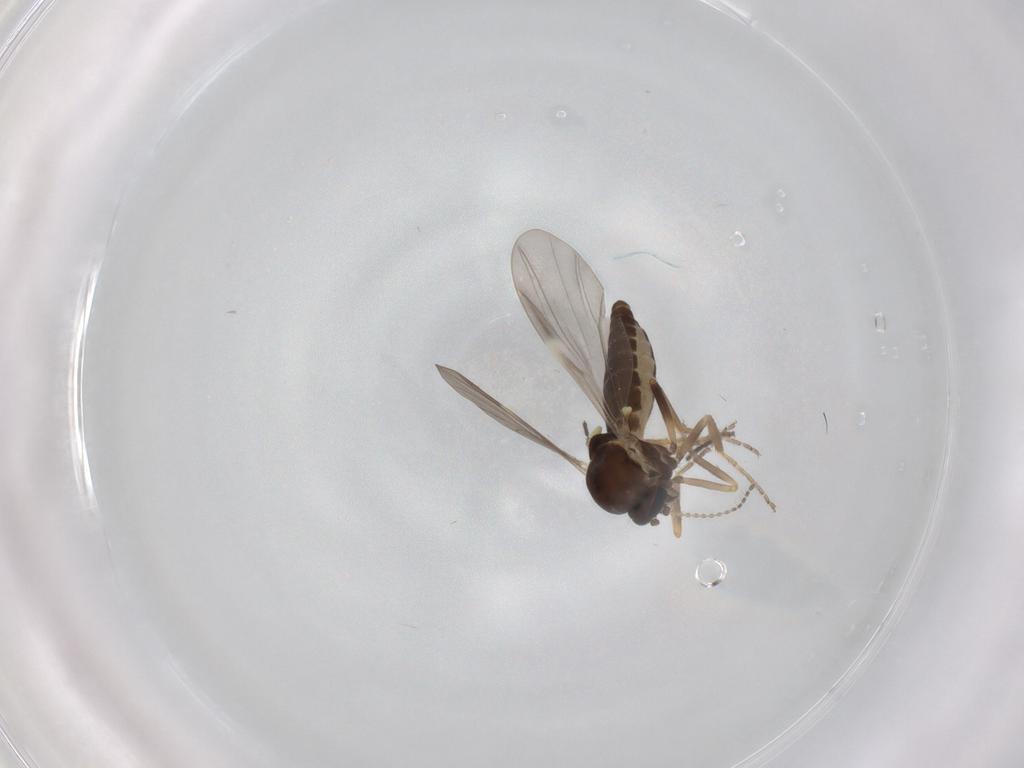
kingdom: Animalia
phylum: Arthropoda
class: Insecta
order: Diptera
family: Ceratopogonidae
